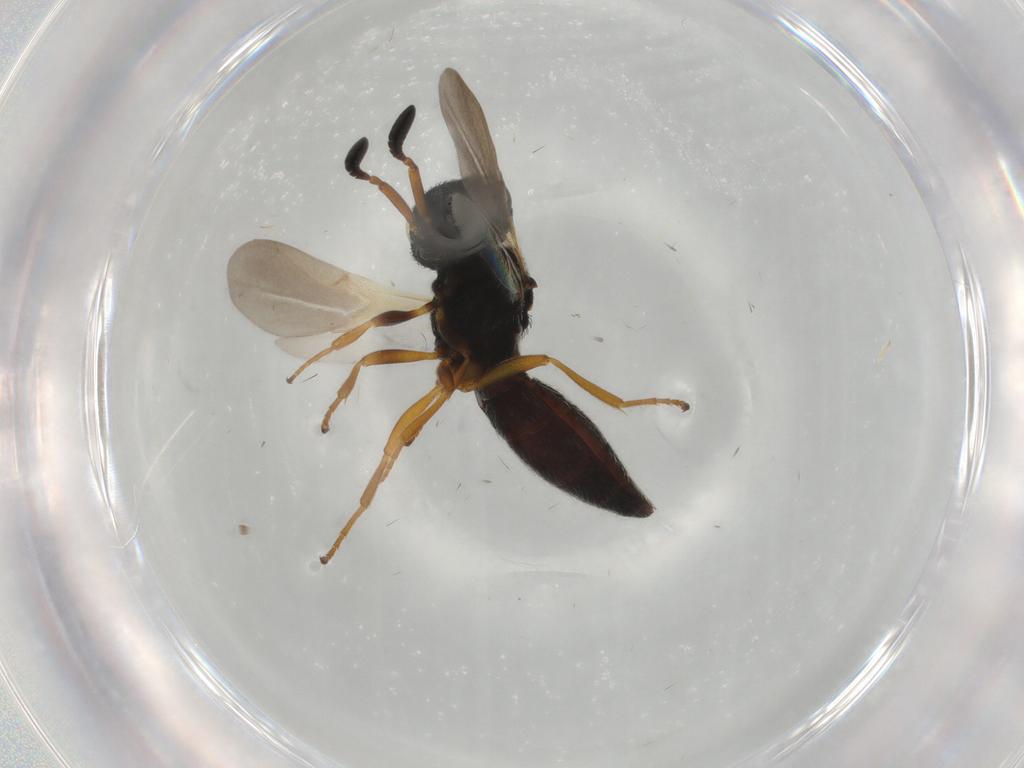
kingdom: Animalia
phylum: Arthropoda
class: Insecta
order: Hymenoptera
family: Scelionidae
